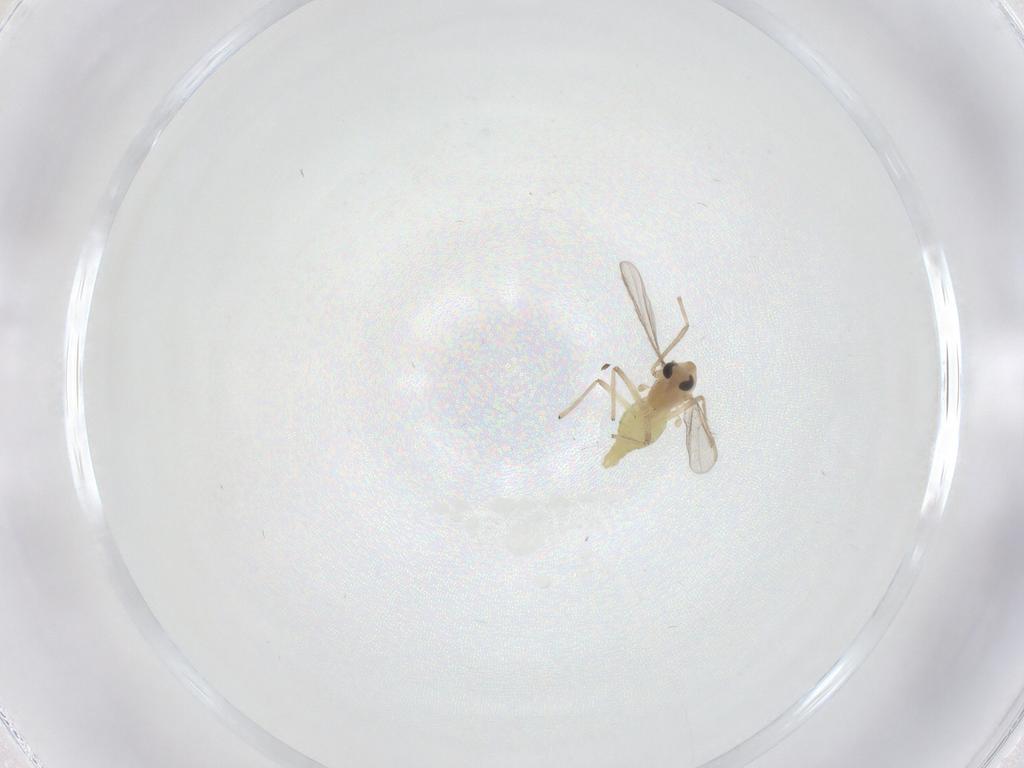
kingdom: Animalia
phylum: Arthropoda
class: Insecta
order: Diptera
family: Chironomidae
